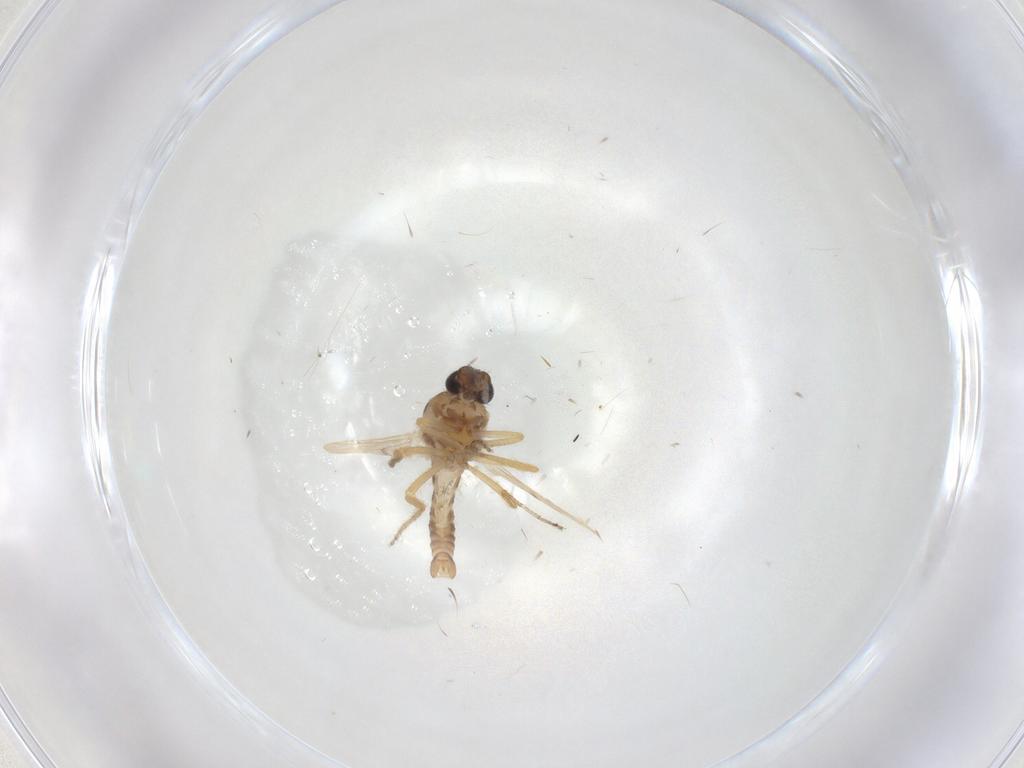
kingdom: Animalia
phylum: Arthropoda
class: Insecta
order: Diptera
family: Ceratopogonidae
